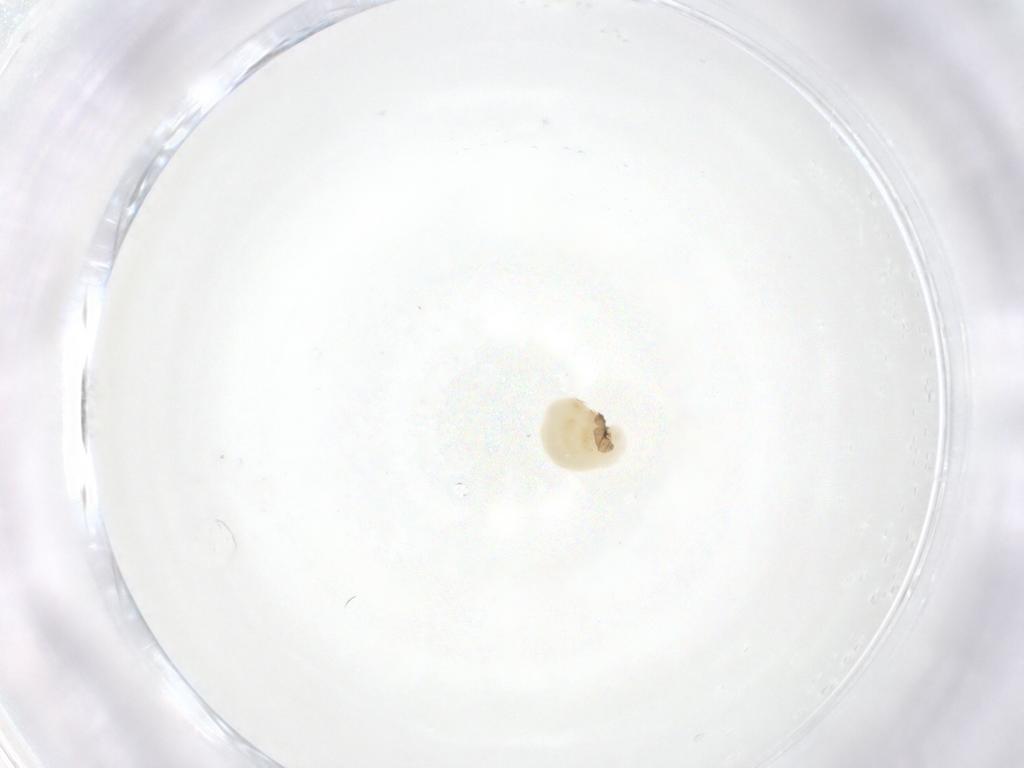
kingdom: Animalia
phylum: Arthropoda
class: Insecta
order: Hymenoptera
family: Eulophidae
